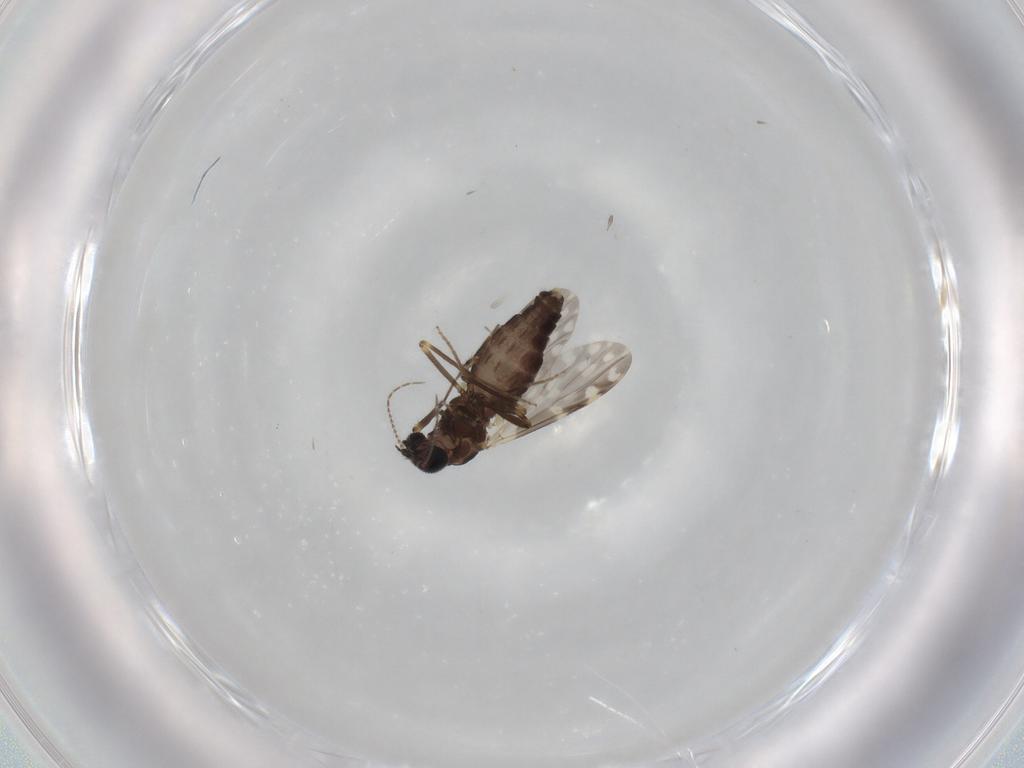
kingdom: Animalia
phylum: Arthropoda
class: Insecta
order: Diptera
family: Ceratopogonidae
